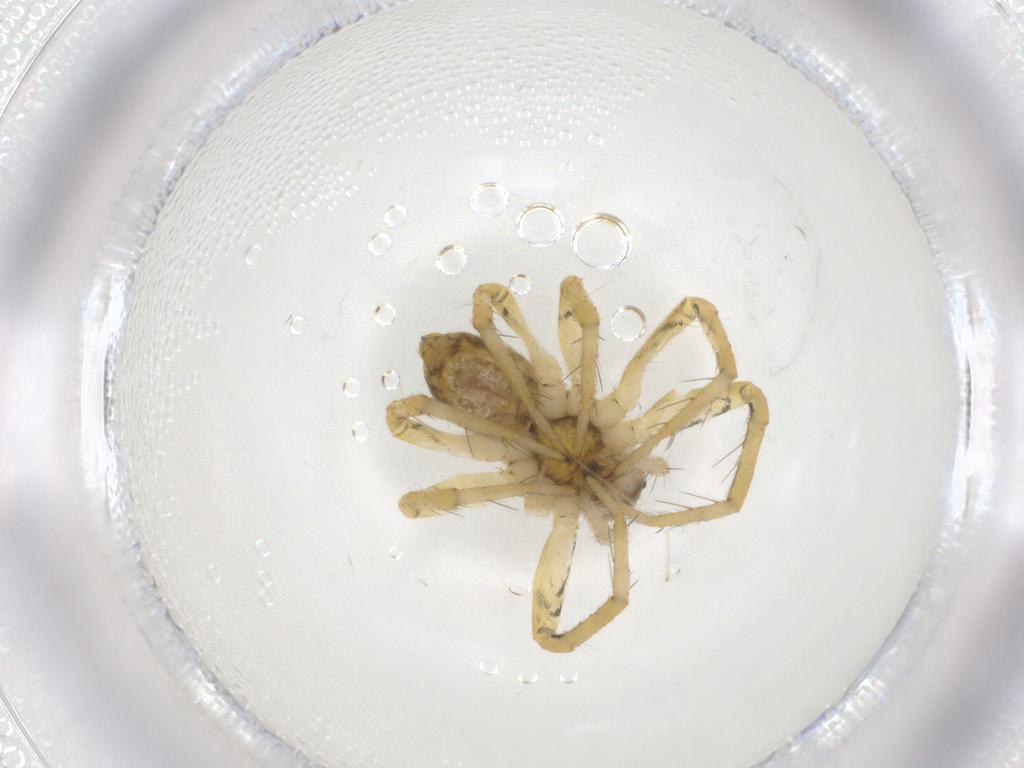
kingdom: Animalia
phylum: Arthropoda
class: Arachnida
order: Araneae
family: Pisauridae
